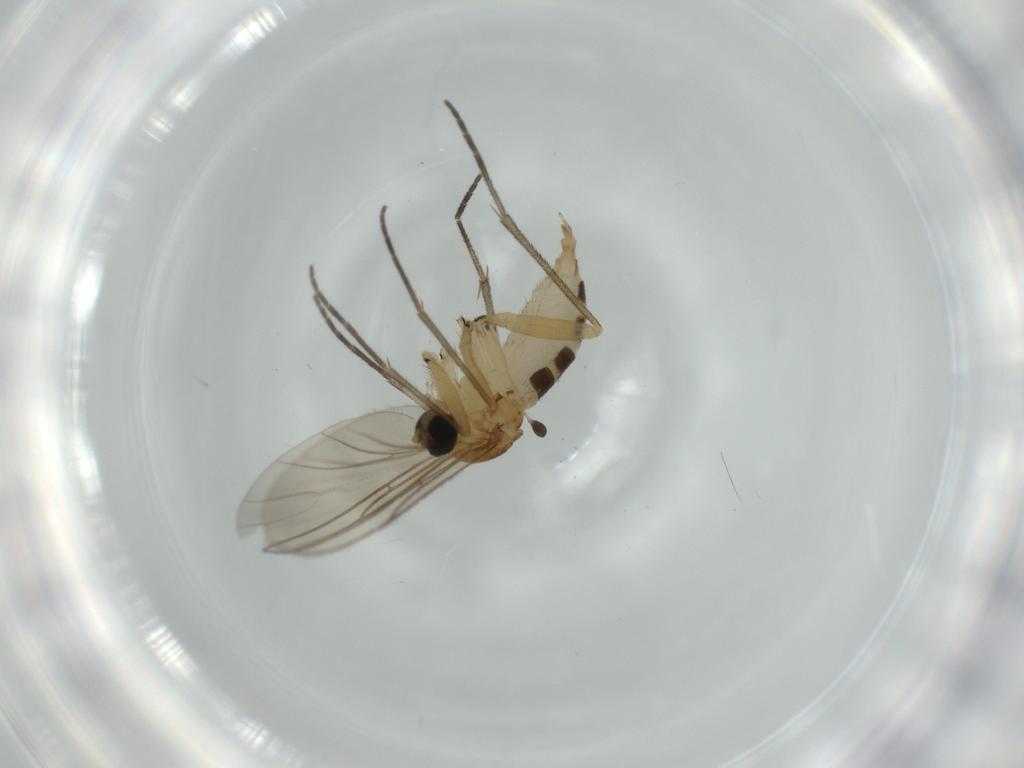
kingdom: Animalia
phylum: Arthropoda
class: Insecta
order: Diptera
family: Sciaridae
